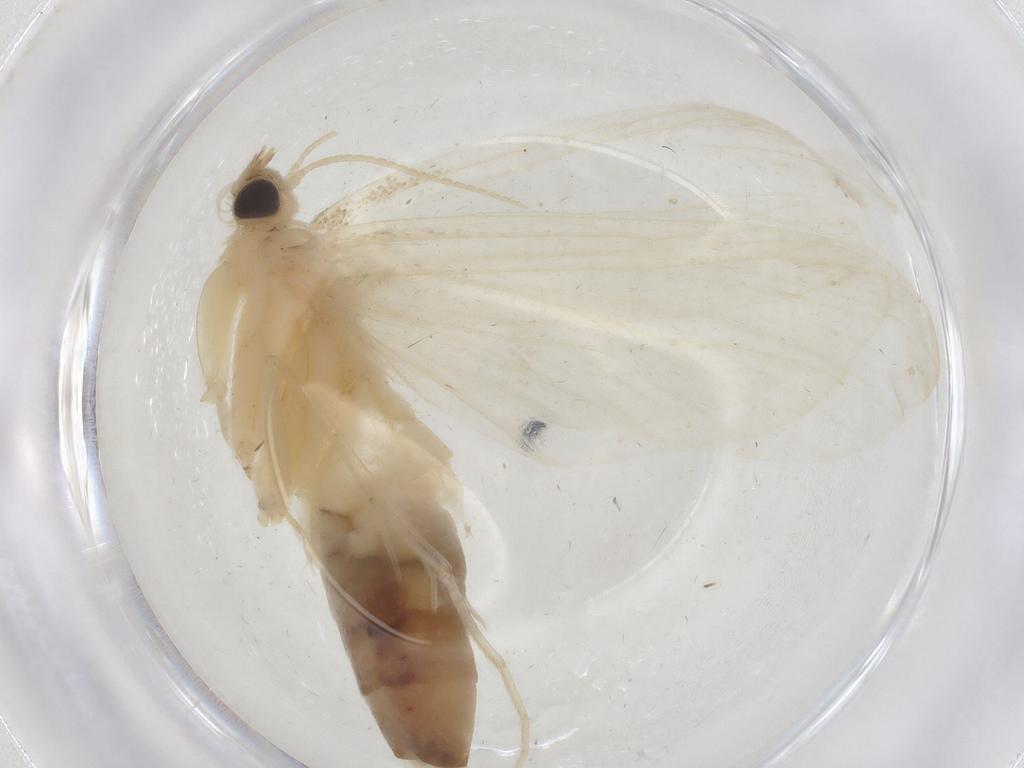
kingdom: Animalia
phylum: Arthropoda
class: Insecta
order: Lepidoptera
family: Crambidae
